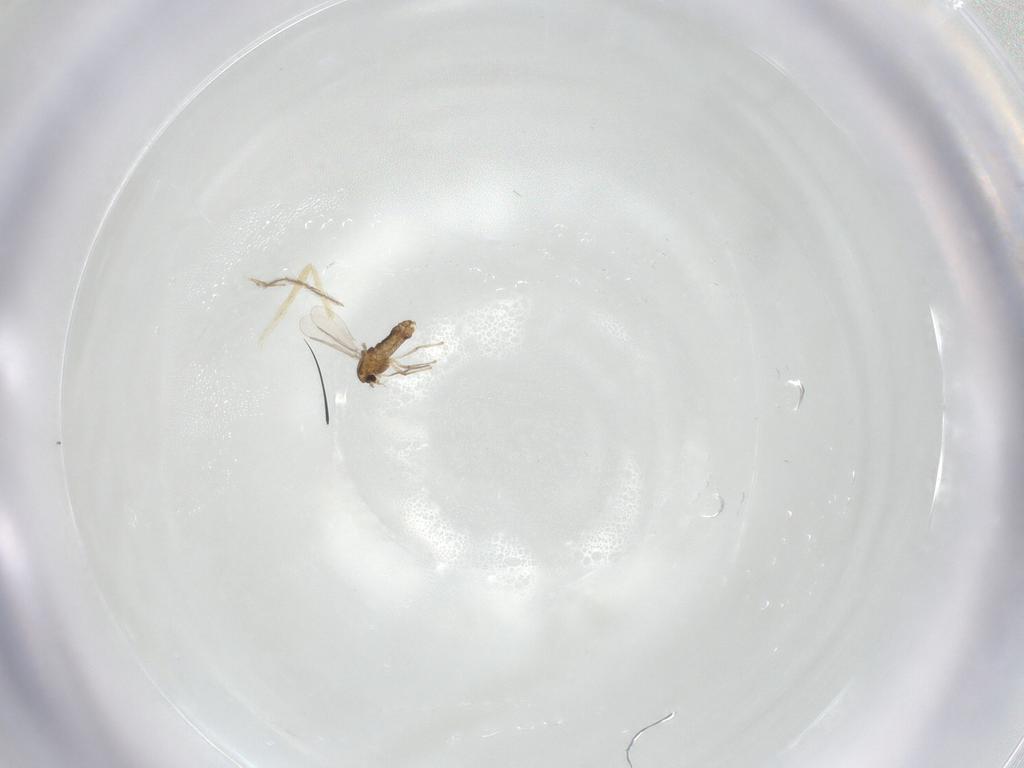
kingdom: Animalia
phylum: Arthropoda
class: Insecta
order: Diptera
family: Chironomidae
